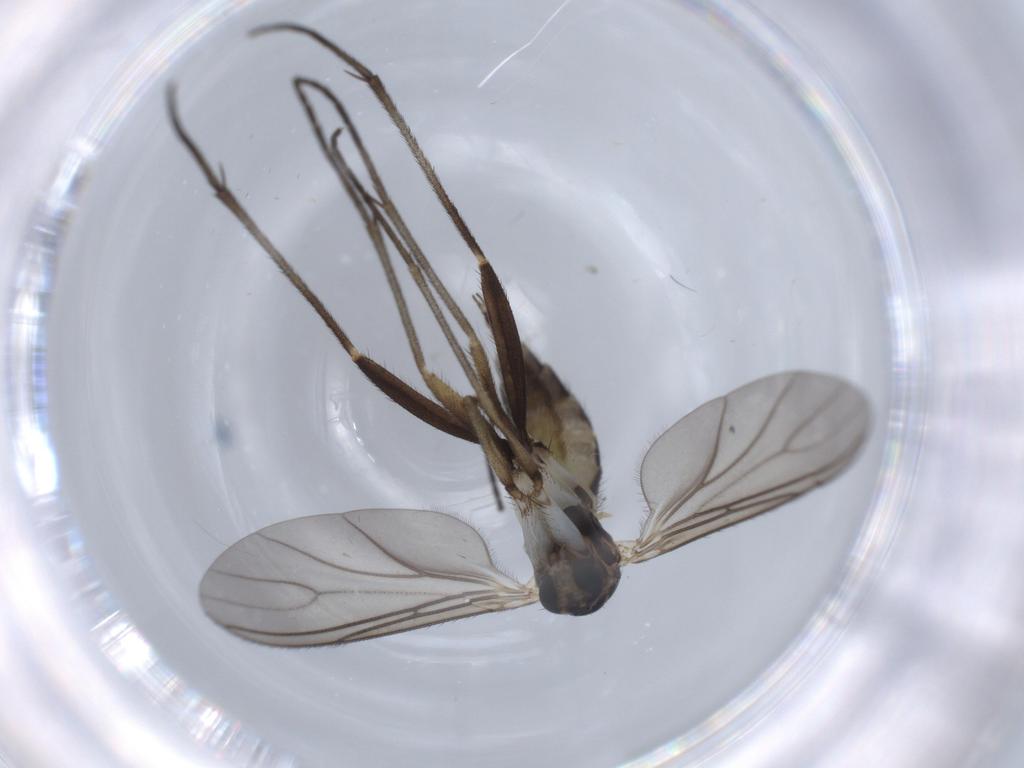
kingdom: Animalia
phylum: Arthropoda
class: Insecta
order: Diptera
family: Sciaridae
